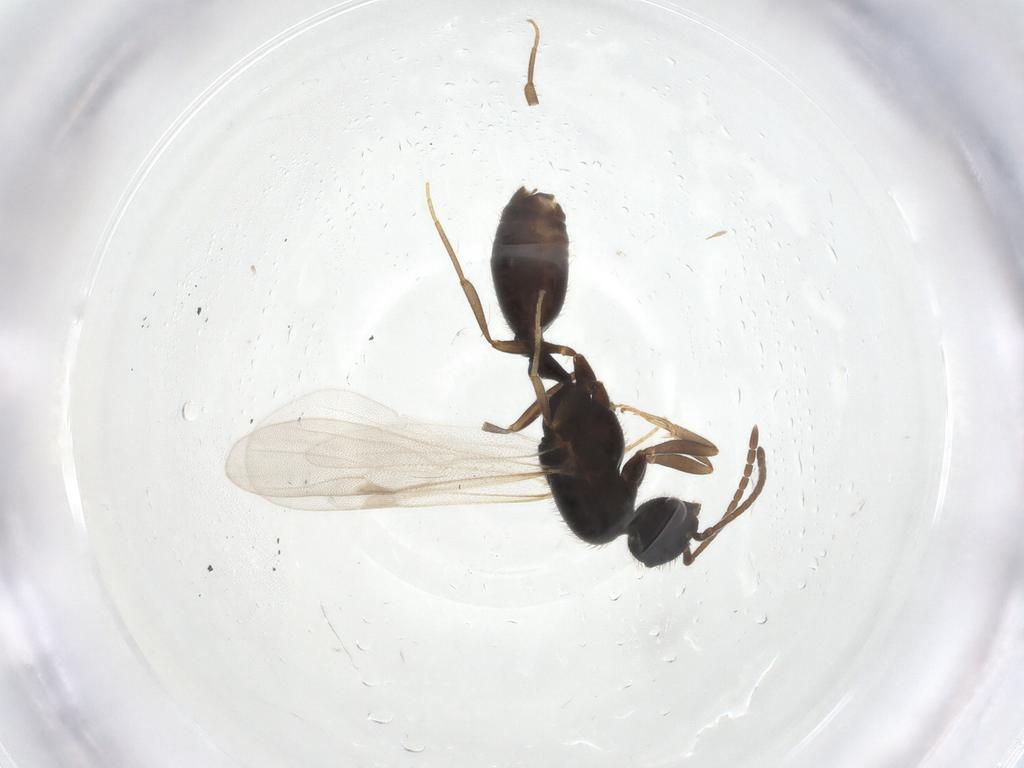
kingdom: Animalia
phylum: Arthropoda
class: Insecta
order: Hymenoptera
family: Formicidae
